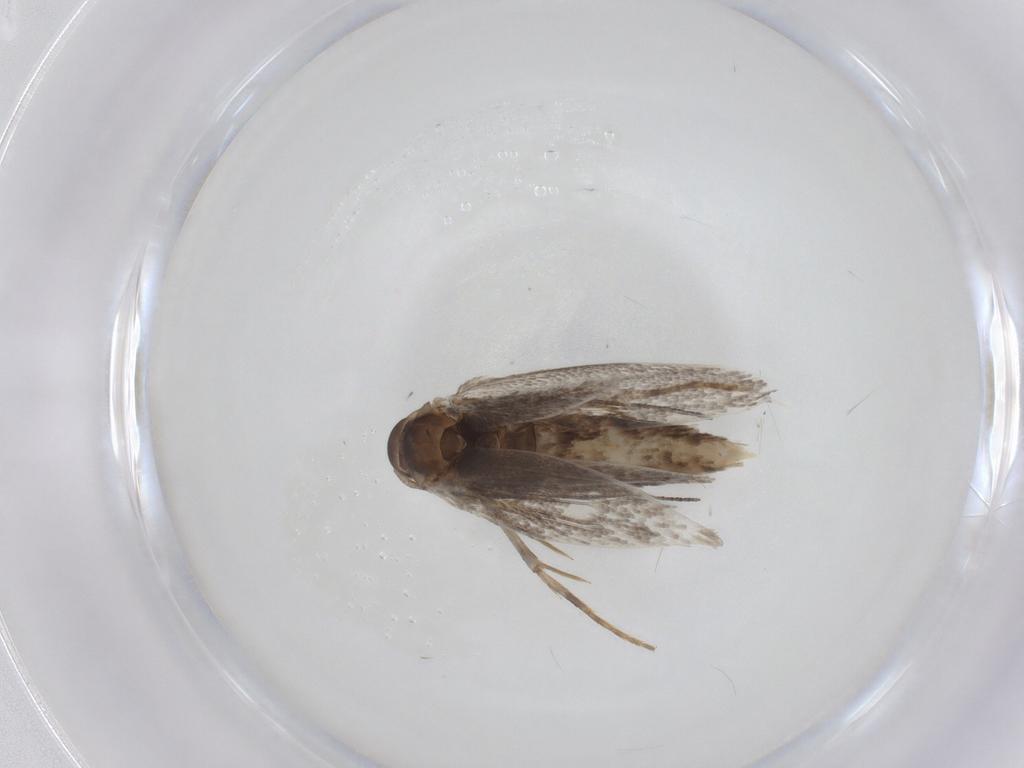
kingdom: Animalia
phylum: Arthropoda
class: Insecta
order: Lepidoptera
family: Elachistidae
